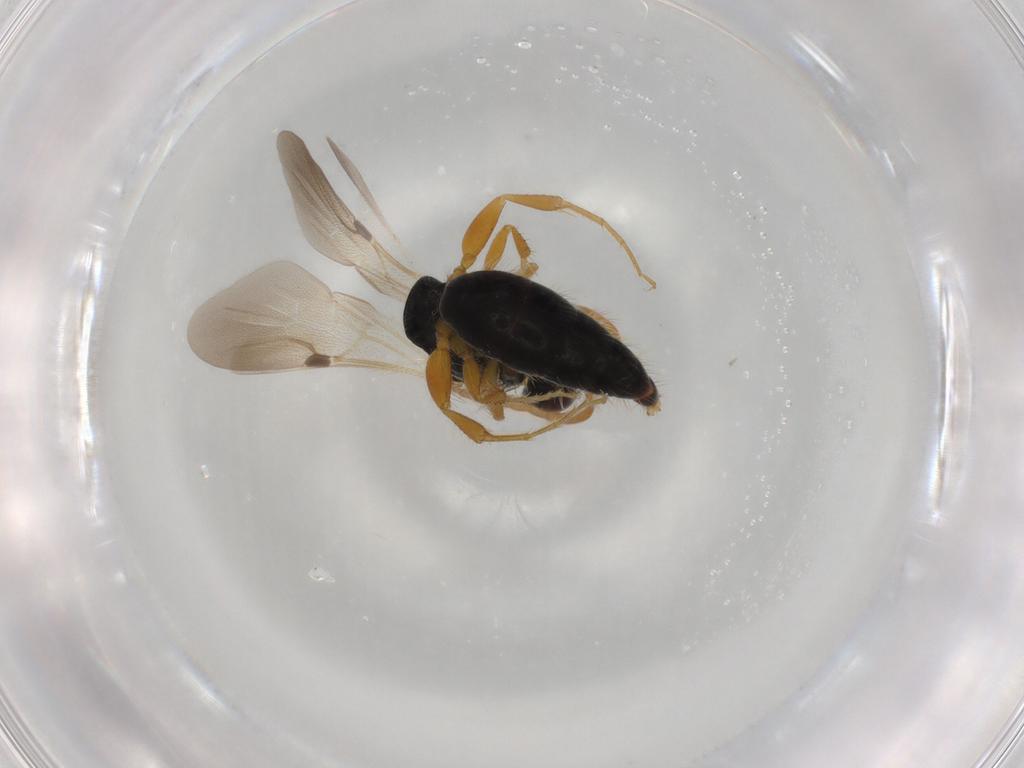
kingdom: Animalia
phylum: Arthropoda
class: Insecta
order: Hymenoptera
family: Bethylidae
